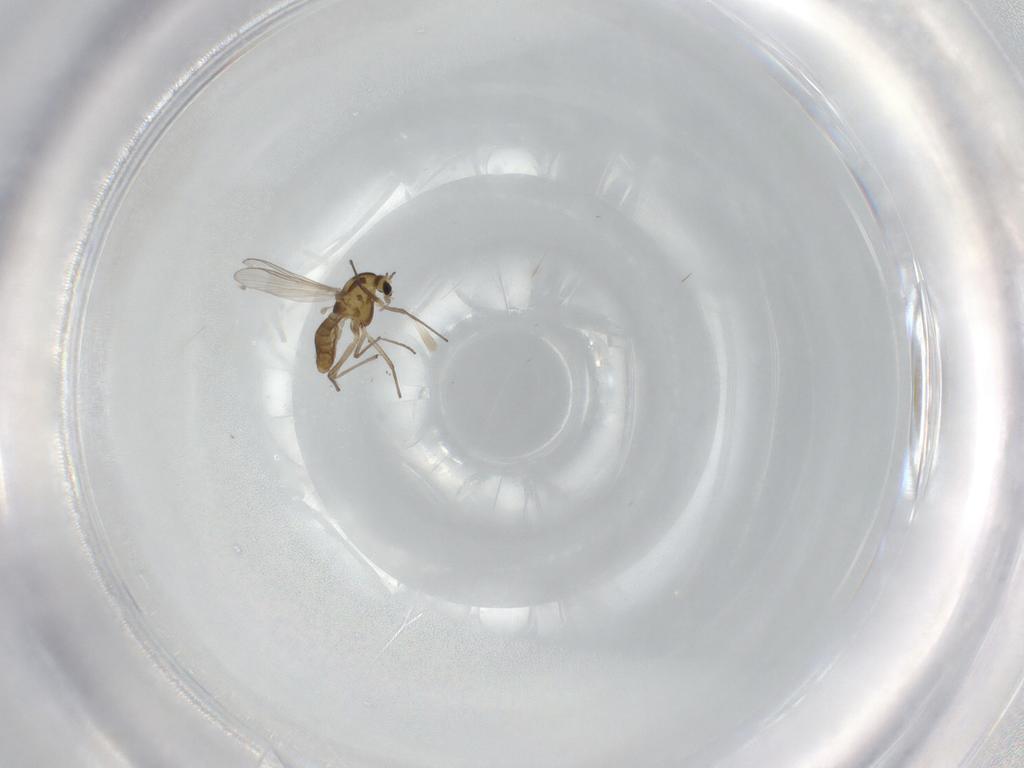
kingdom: Animalia
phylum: Arthropoda
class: Insecta
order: Diptera
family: Chironomidae
